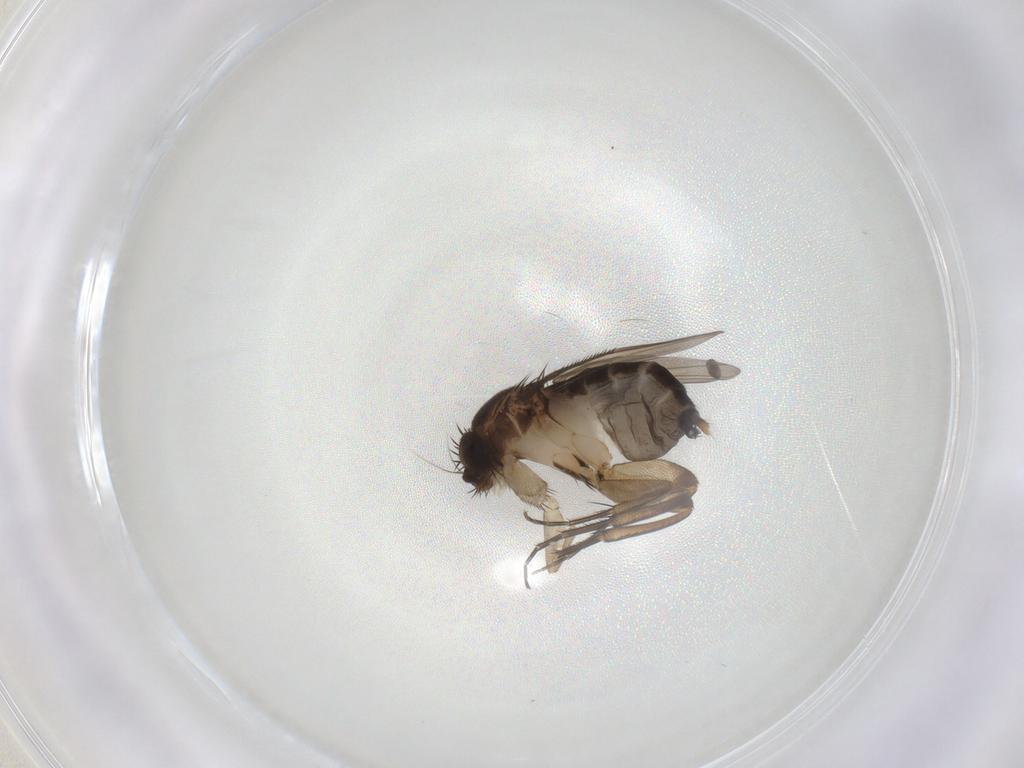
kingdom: Animalia
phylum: Arthropoda
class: Insecta
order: Diptera
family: Phoridae
